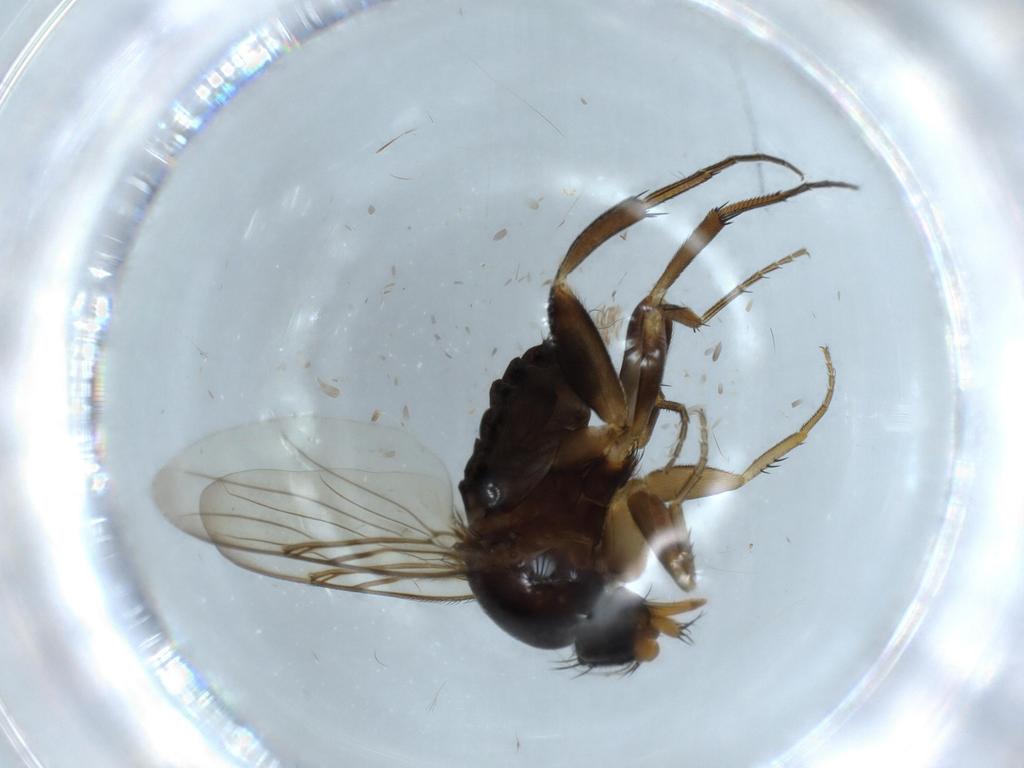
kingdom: Animalia
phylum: Arthropoda
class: Insecta
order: Diptera
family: Phoridae
